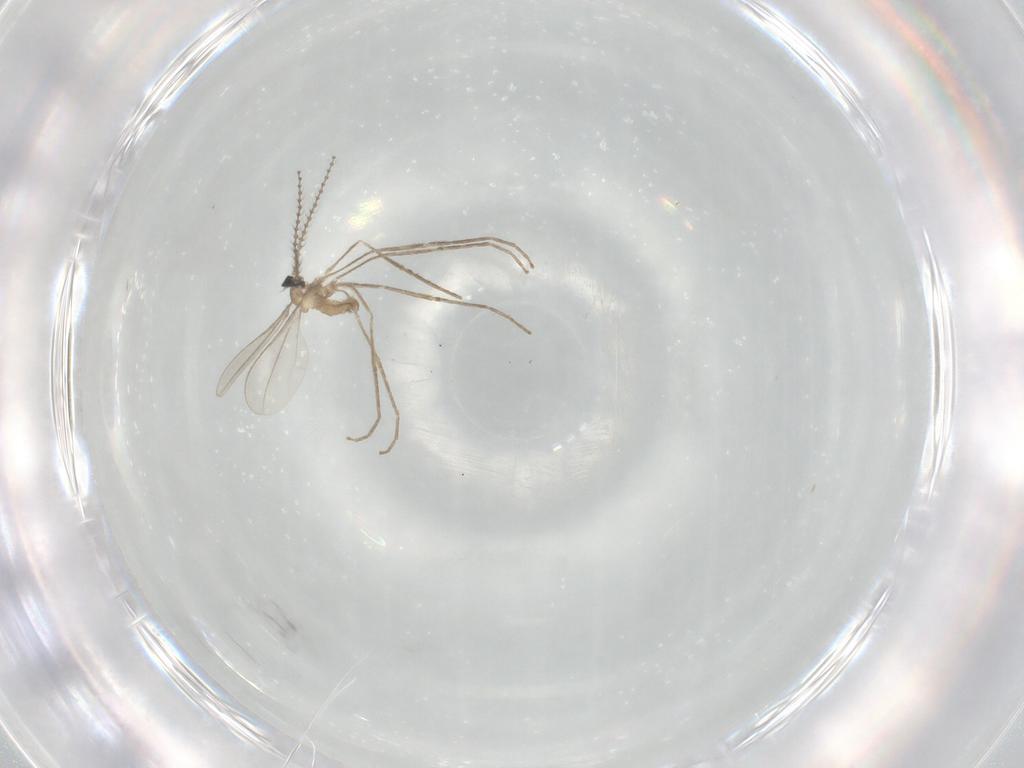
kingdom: Animalia
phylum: Arthropoda
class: Insecta
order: Diptera
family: Cecidomyiidae
